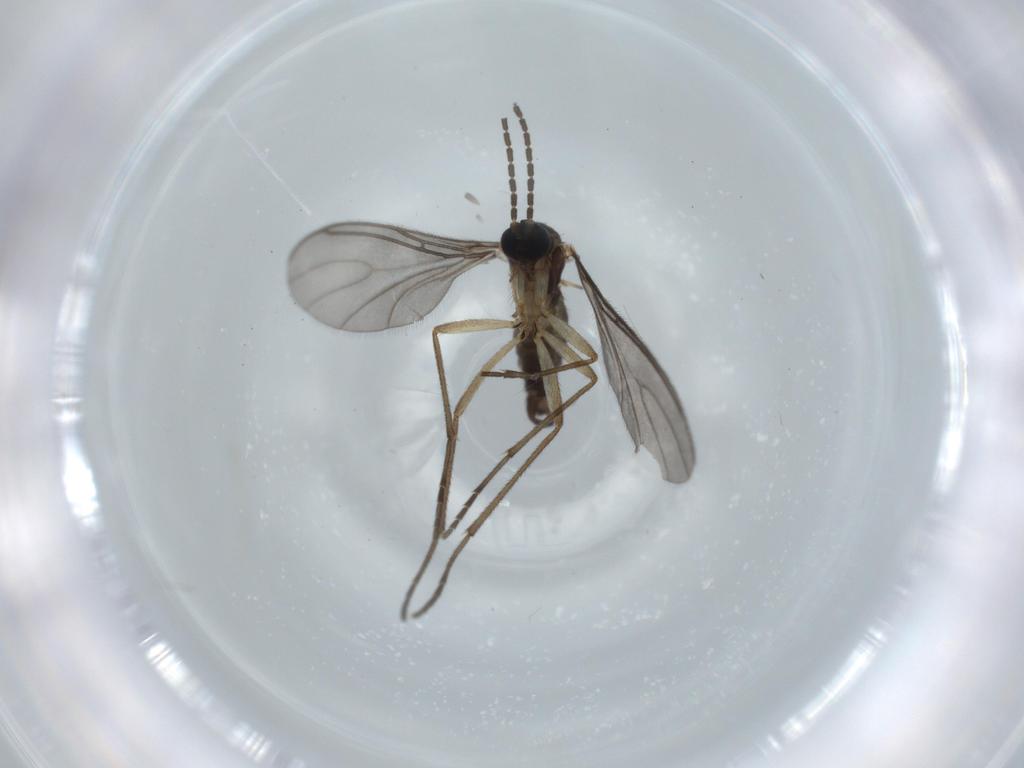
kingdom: Animalia
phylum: Arthropoda
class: Insecta
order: Diptera
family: Sciaridae
